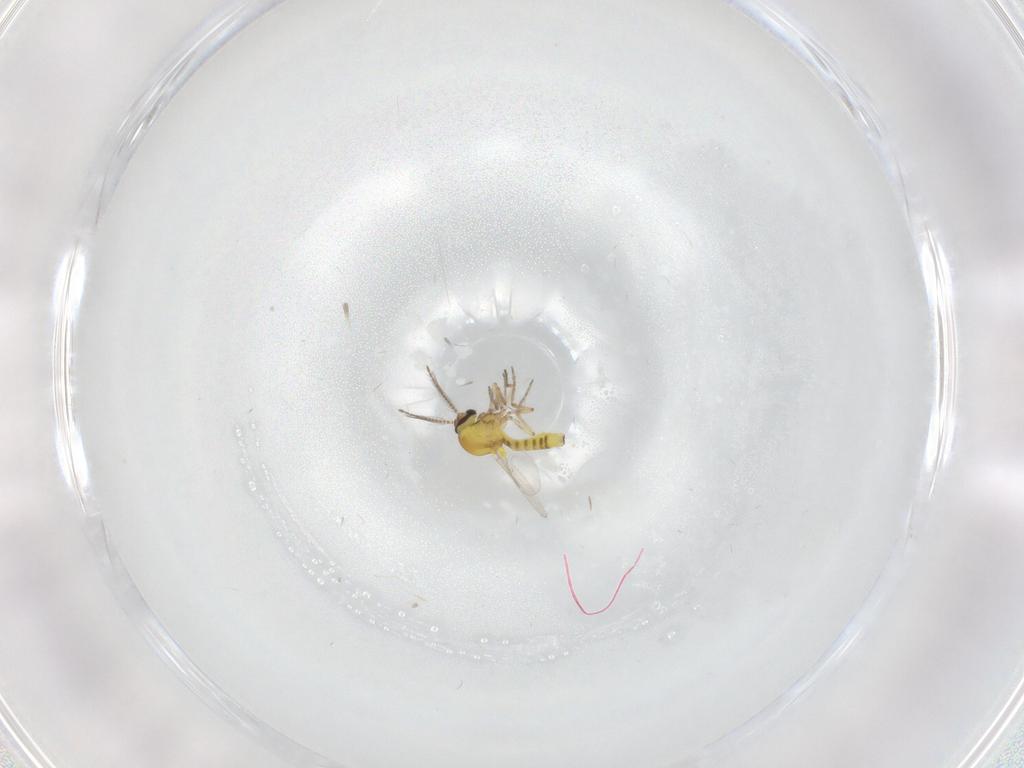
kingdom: Animalia
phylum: Arthropoda
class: Insecta
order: Diptera
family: Ceratopogonidae
